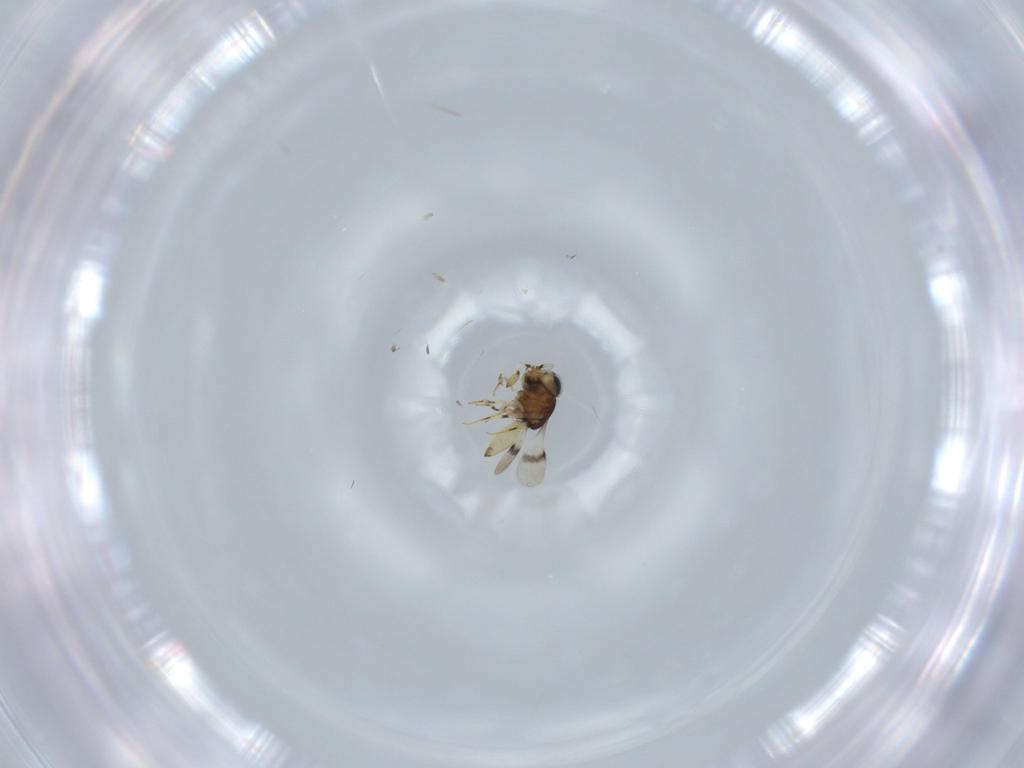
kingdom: Animalia
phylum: Arthropoda
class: Insecta
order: Hymenoptera
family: Scelionidae
